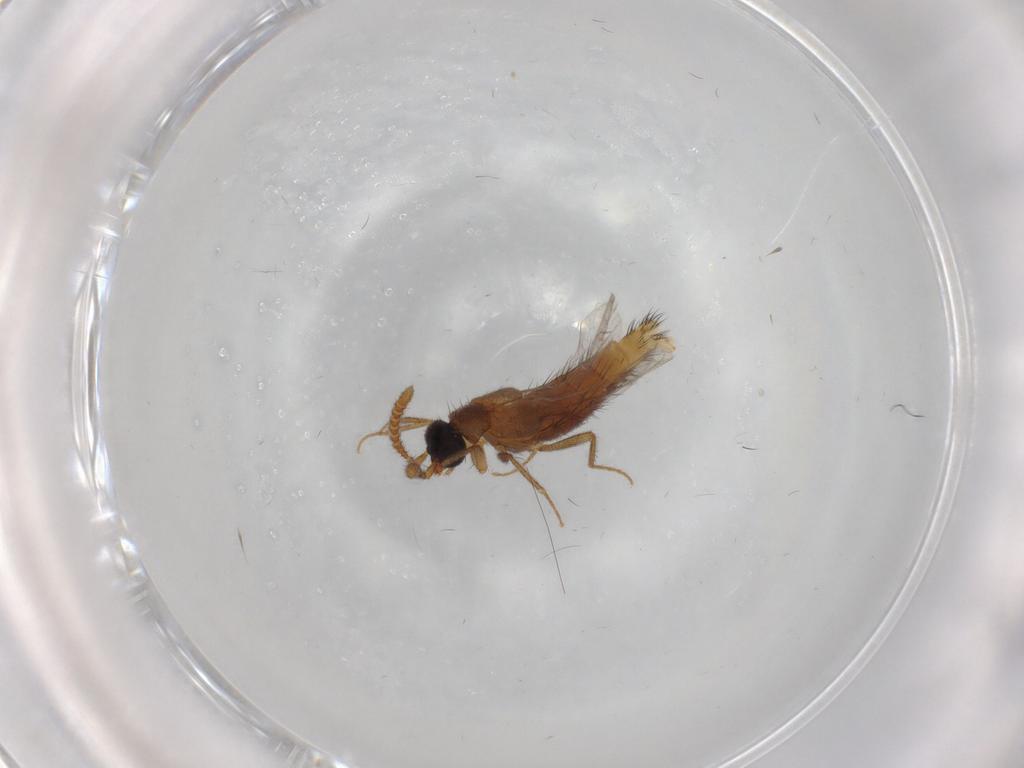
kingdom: Animalia
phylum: Arthropoda
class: Insecta
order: Coleoptera
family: Staphylinidae
